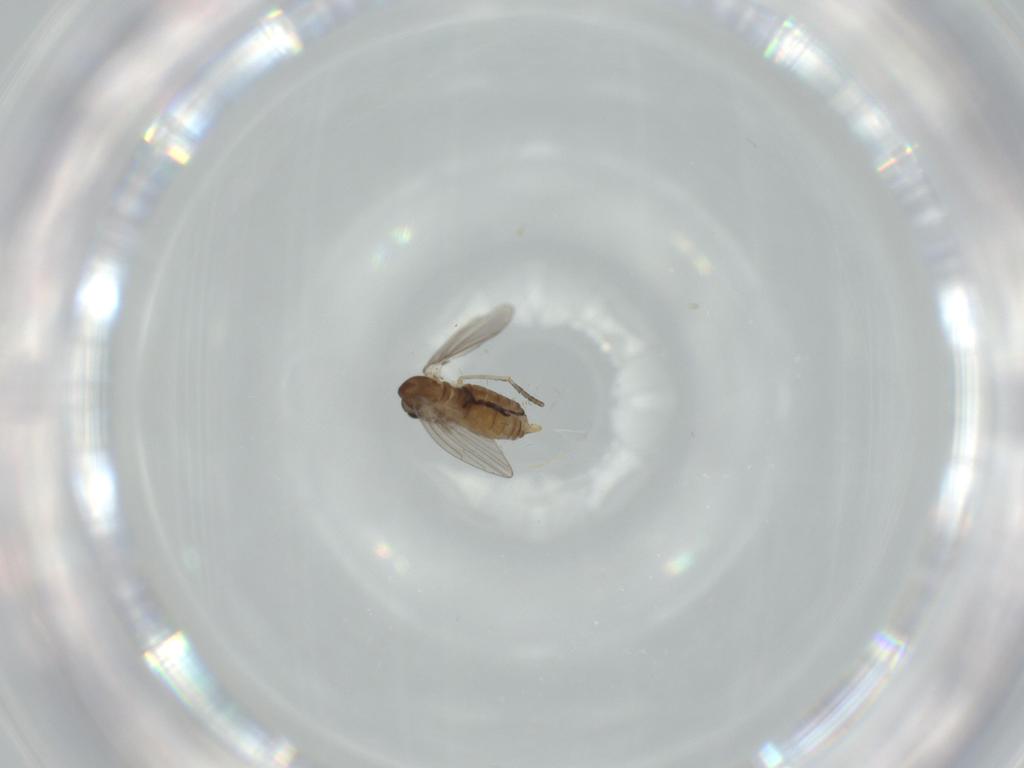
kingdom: Animalia
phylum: Arthropoda
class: Insecta
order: Diptera
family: Psychodidae
